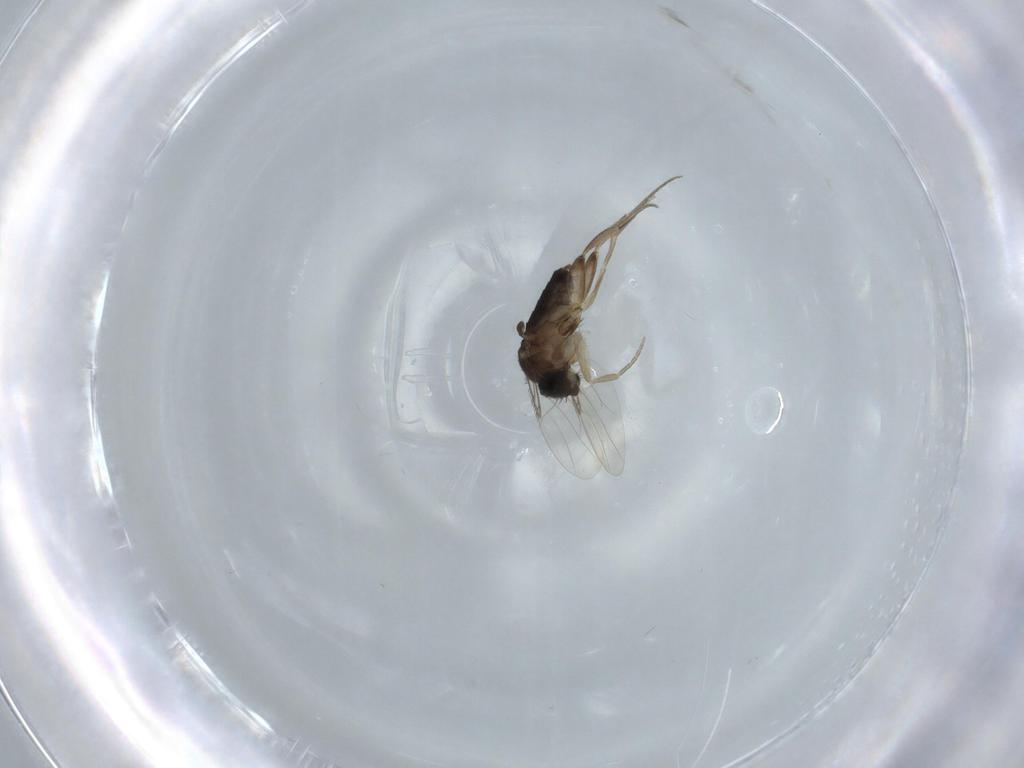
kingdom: Animalia
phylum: Arthropoda
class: Insecta
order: Diptera
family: Phoridae
